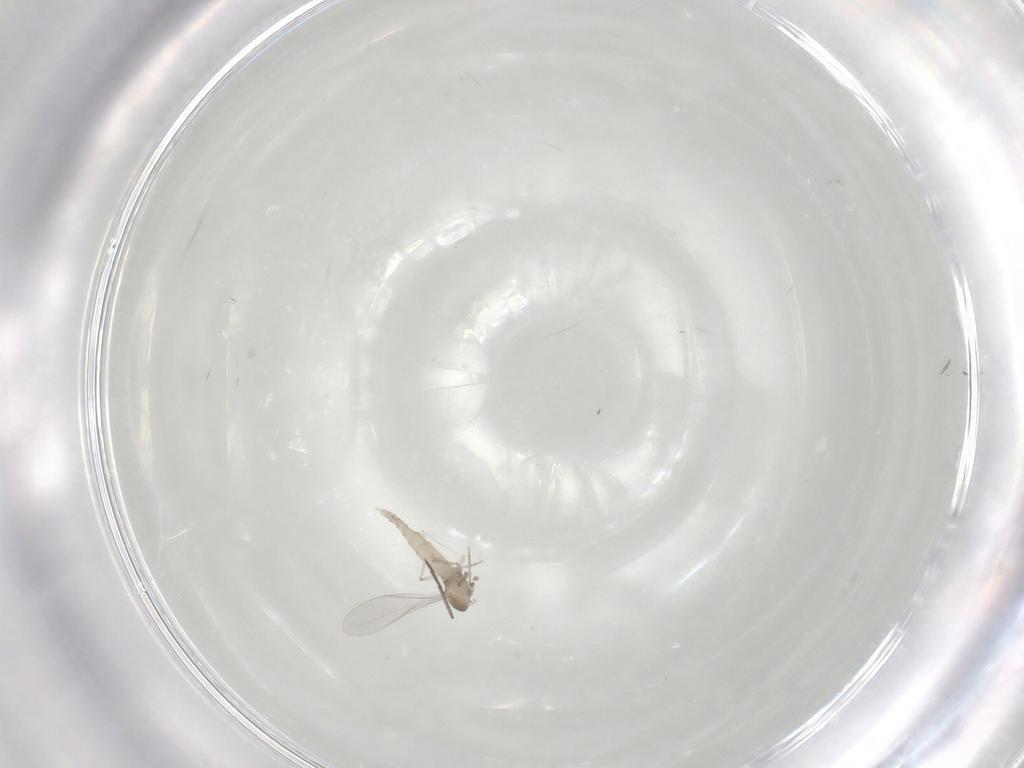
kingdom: Animalia
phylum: Arthropoda
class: Insecta
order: Diptera
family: Cecidomyiidae
